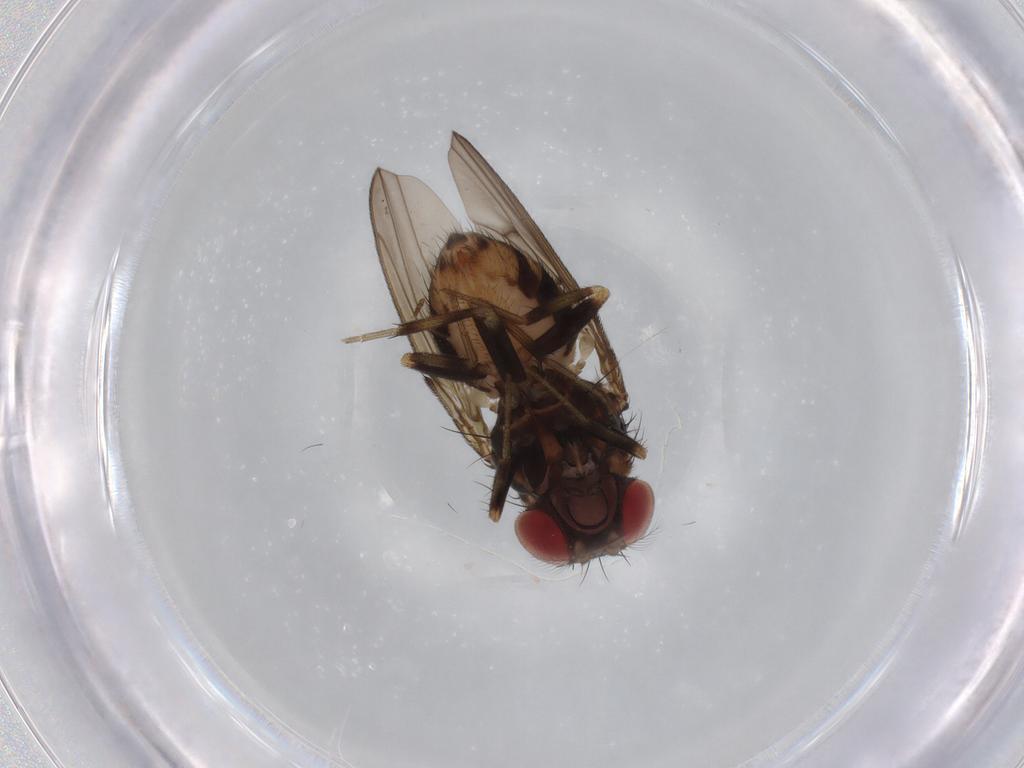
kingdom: Animalia
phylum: Arthropoda
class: Insecta
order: Diptera
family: Drosophilidae
